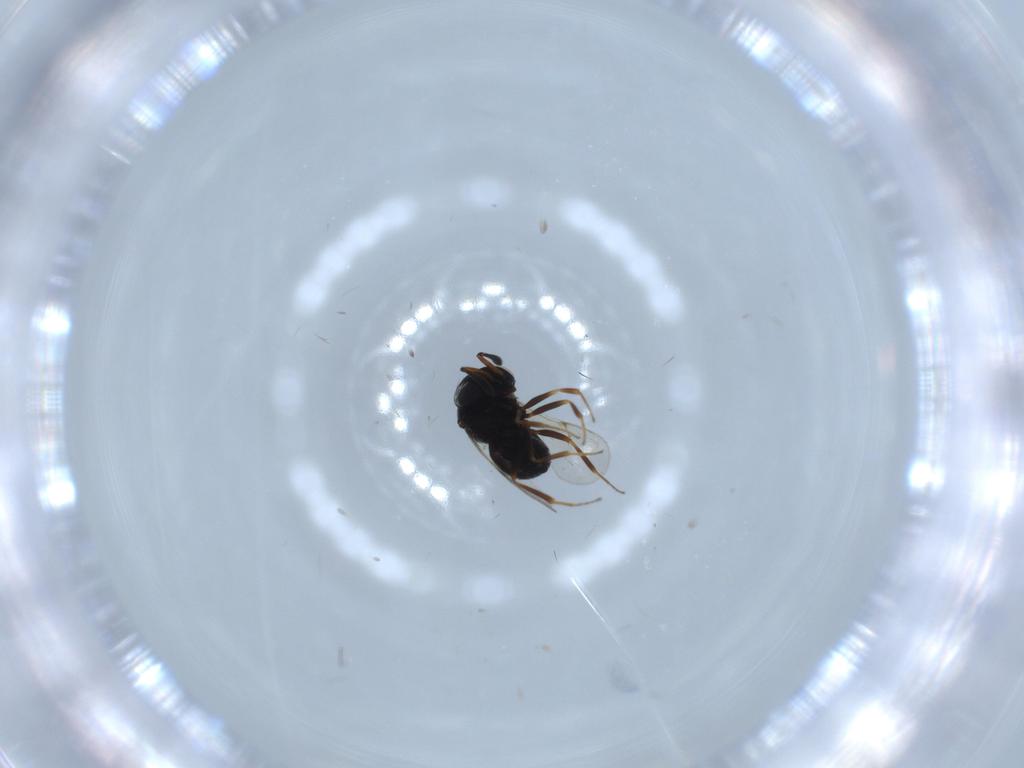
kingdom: Animalia
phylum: Arthropoda
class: Insecta
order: Hymenoptera
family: Scelionidae
